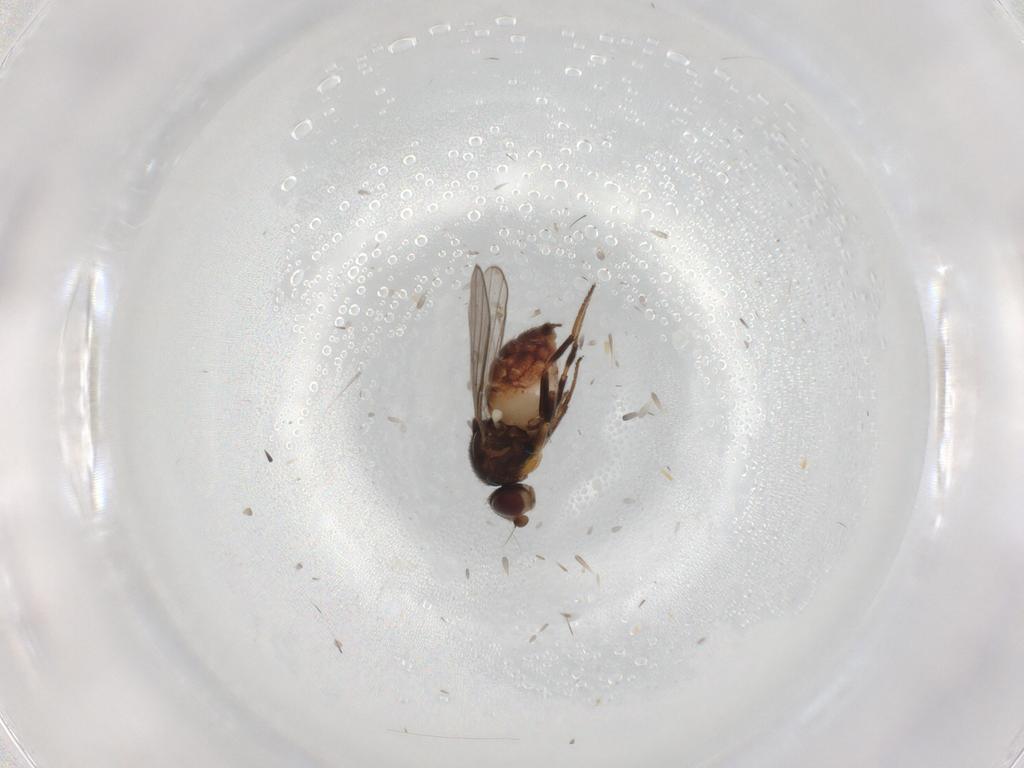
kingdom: Animalia
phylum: Arthropoda
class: Insecta
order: Diptera
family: Chloropidae
